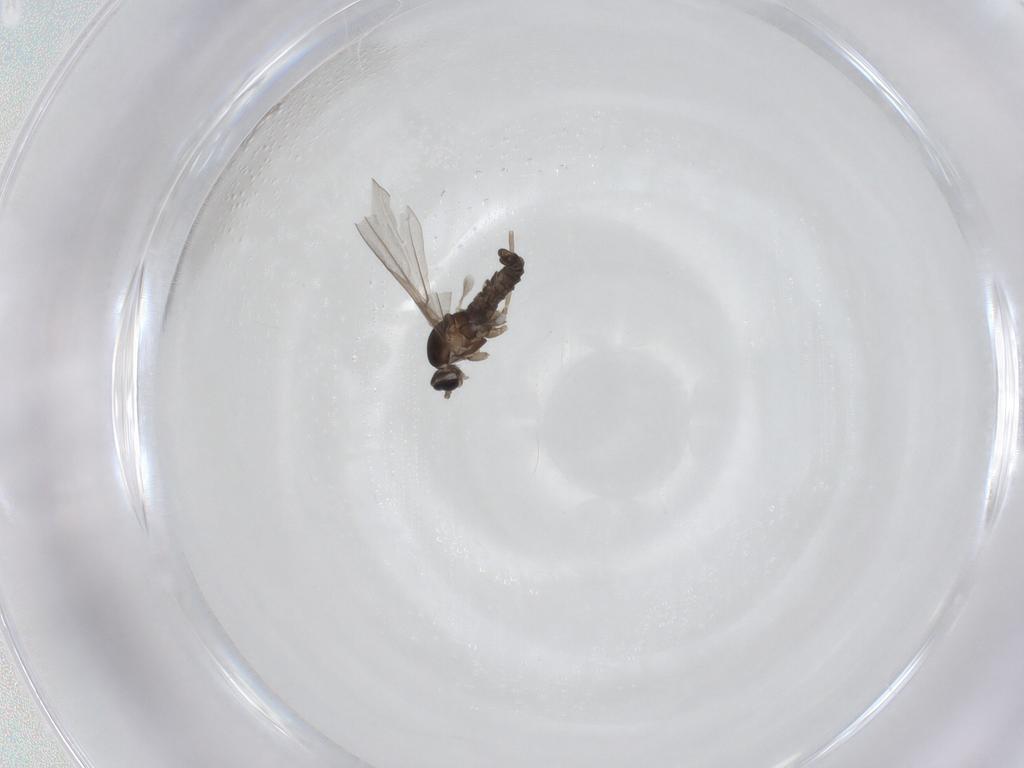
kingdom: Animalia
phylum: Arthropoda
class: Insecta
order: Diptera
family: Cecidomyiidae
